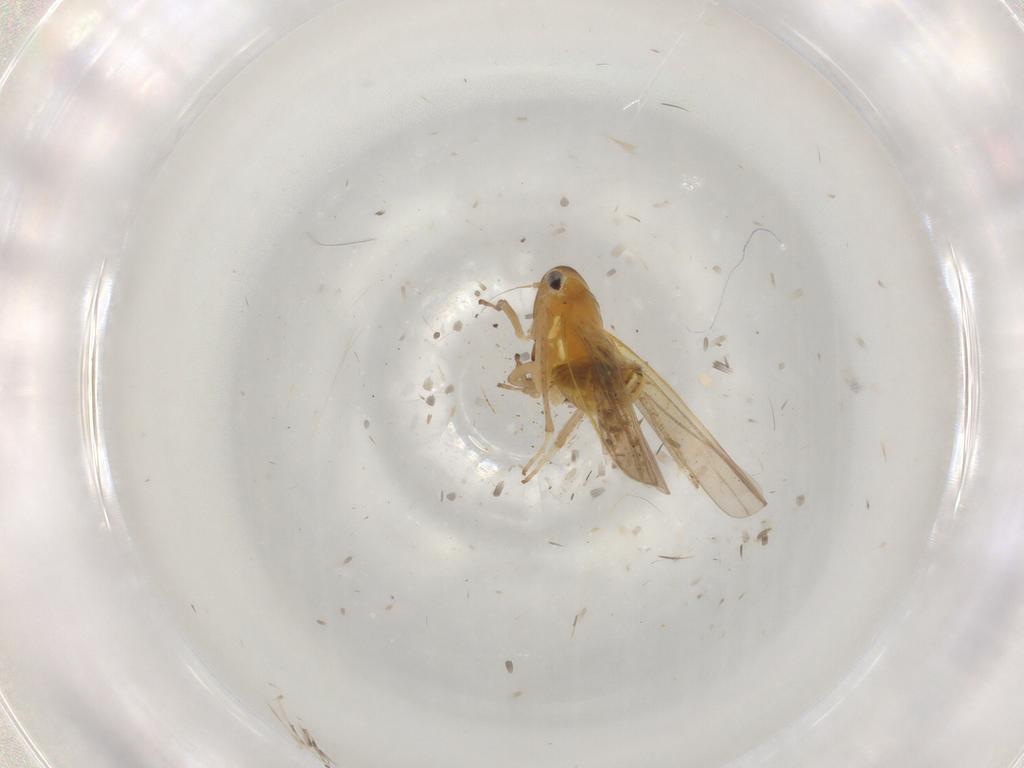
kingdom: Animalia
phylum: Arthropoda
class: Insecta
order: Hemiptera
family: Cicadellidae
